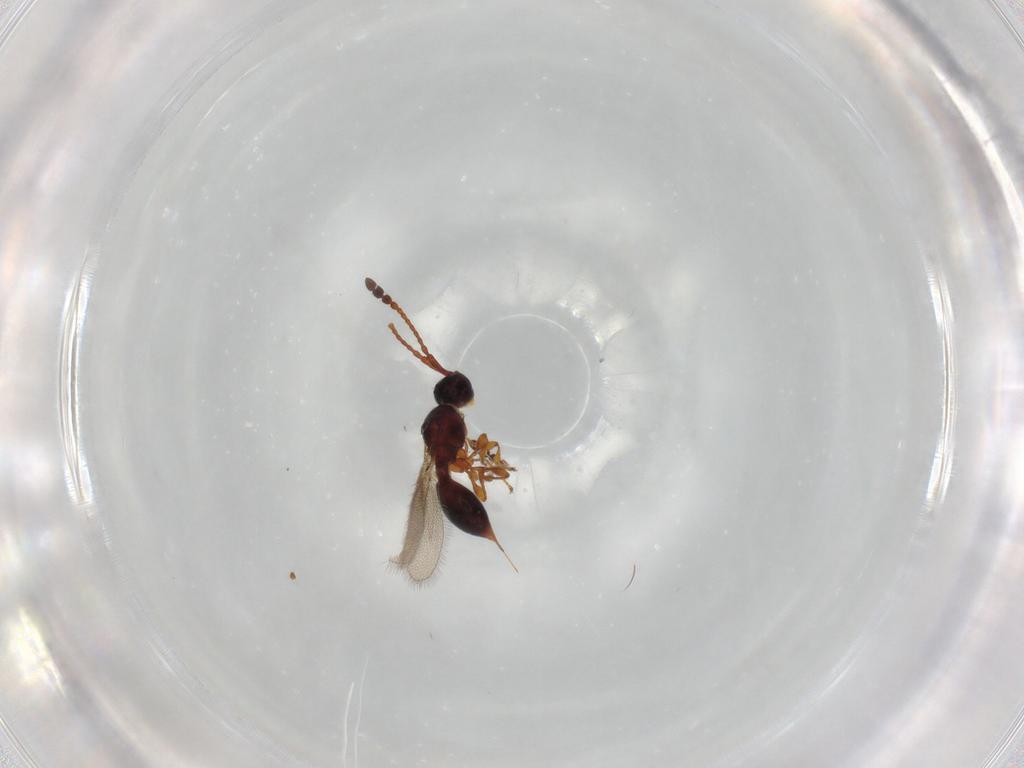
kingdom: Animalia
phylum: Arthropoda
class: Insecta
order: Hymenoptera
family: Diapriidae
